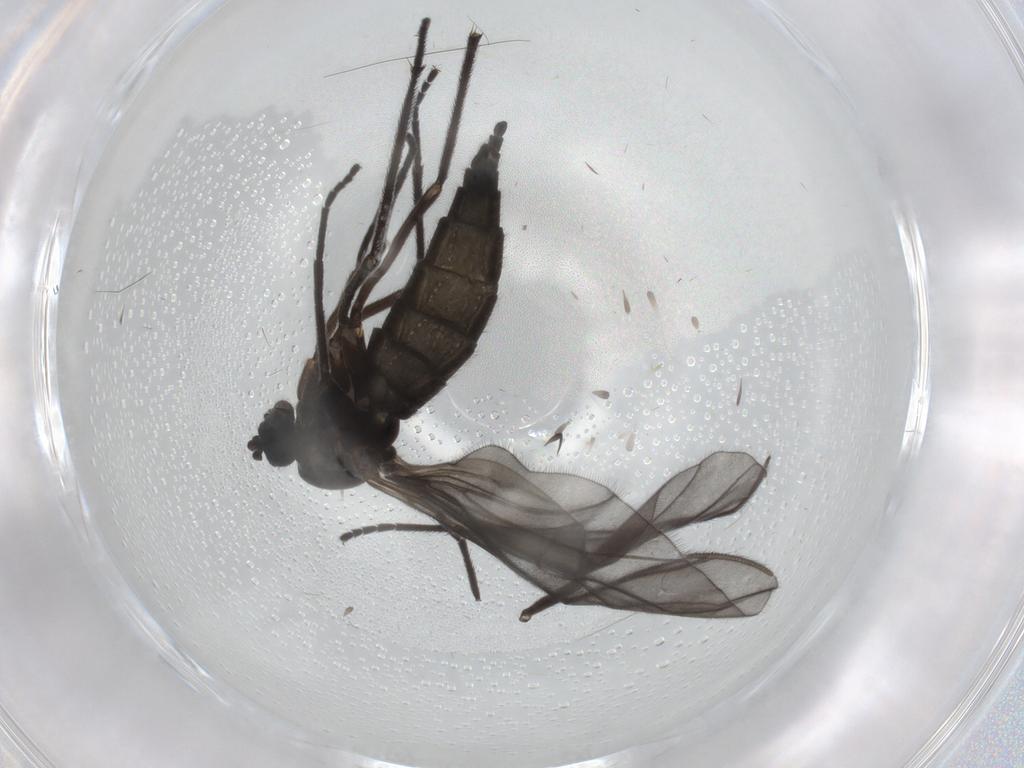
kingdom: Animalia
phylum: Arthropoda
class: Insecta
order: Diptera
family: Sciaridae
